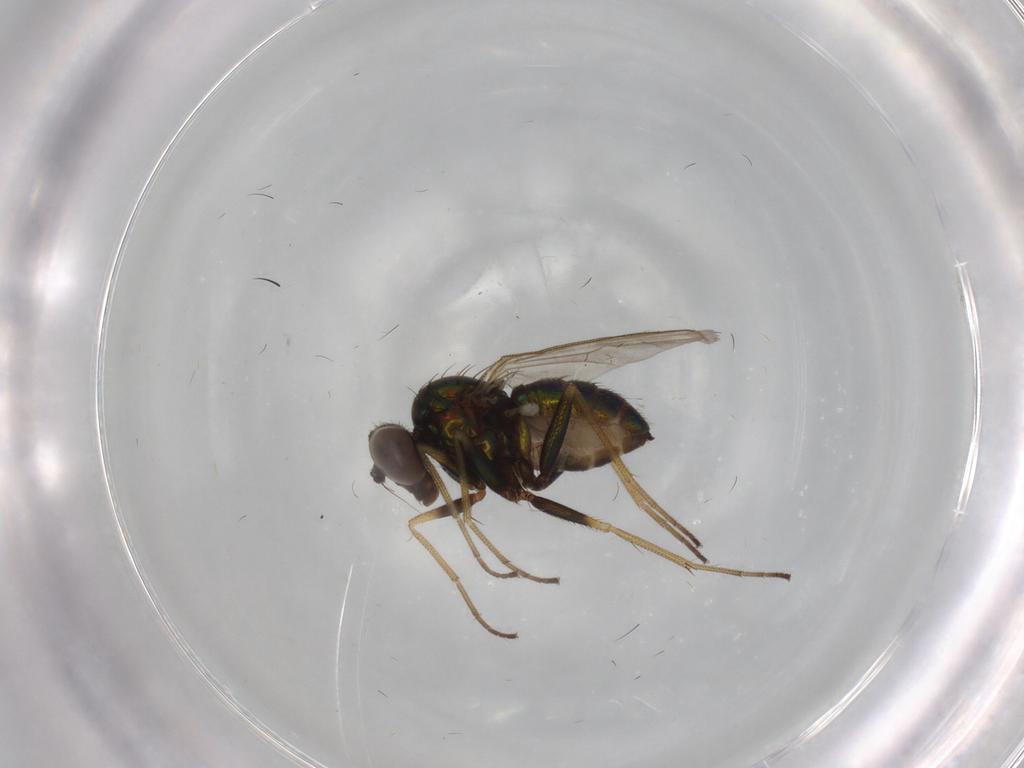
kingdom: Animalia
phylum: Arthropoda
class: Insecta
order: Diptera
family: Dolichopodidae
